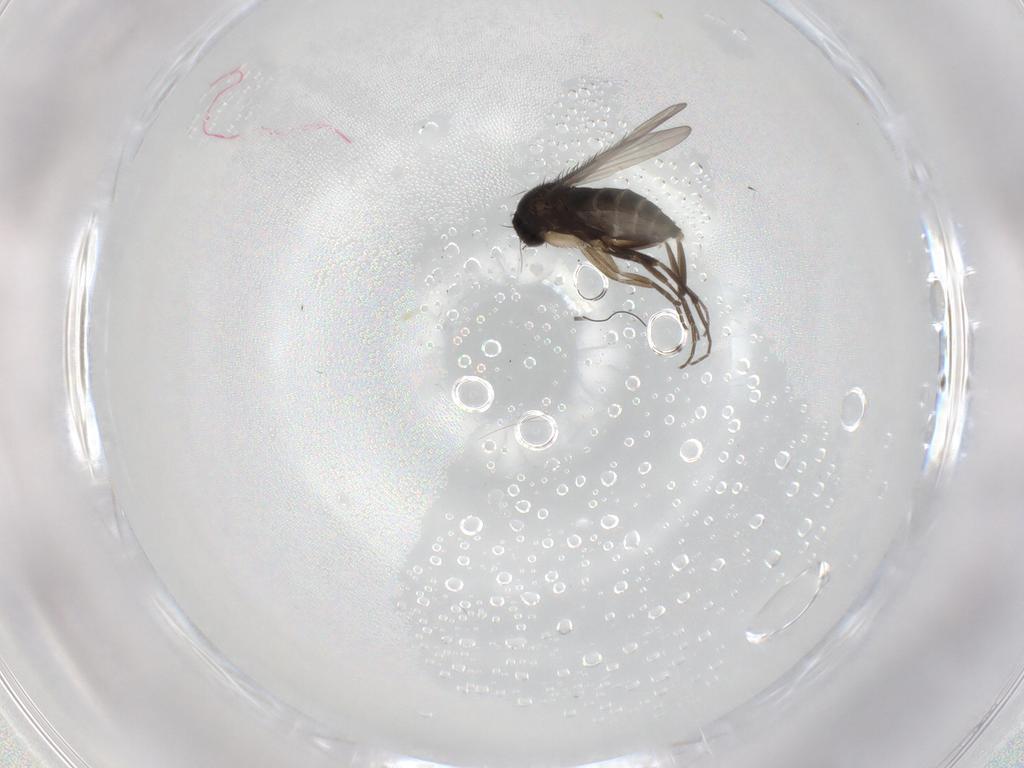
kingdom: Animalia
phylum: Arthropoda
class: Insecta
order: Diptera
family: Phoridae
